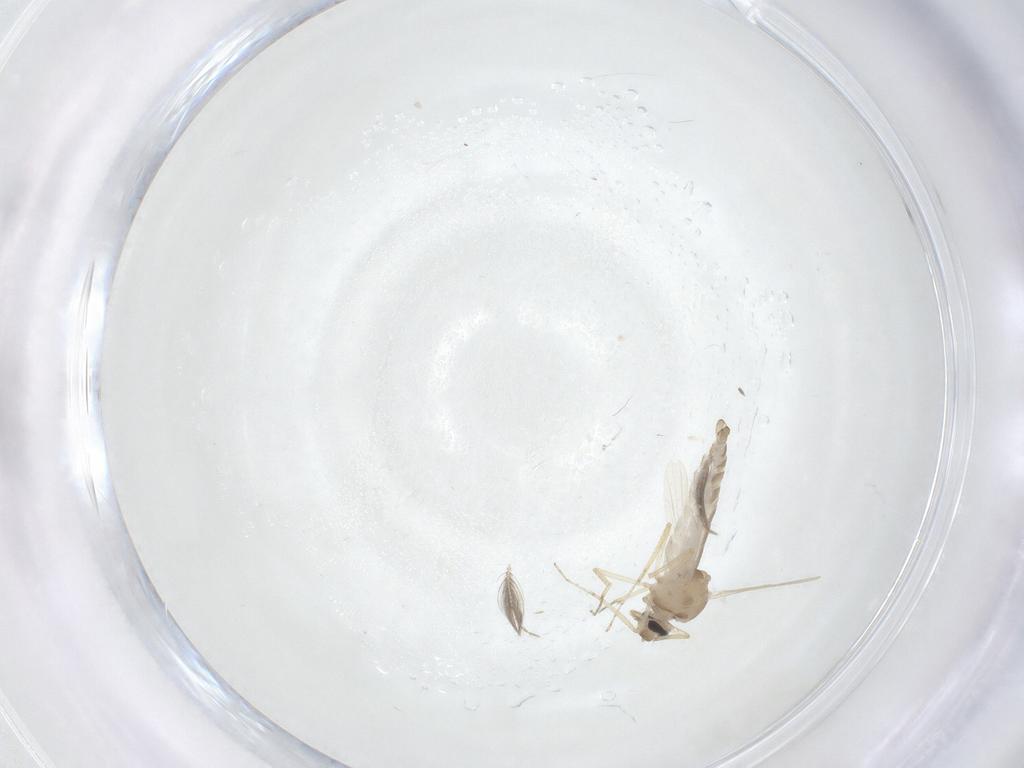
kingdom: Animalia
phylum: Arthropoda
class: Insecta
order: Diptera
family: Ceratopogonidae
